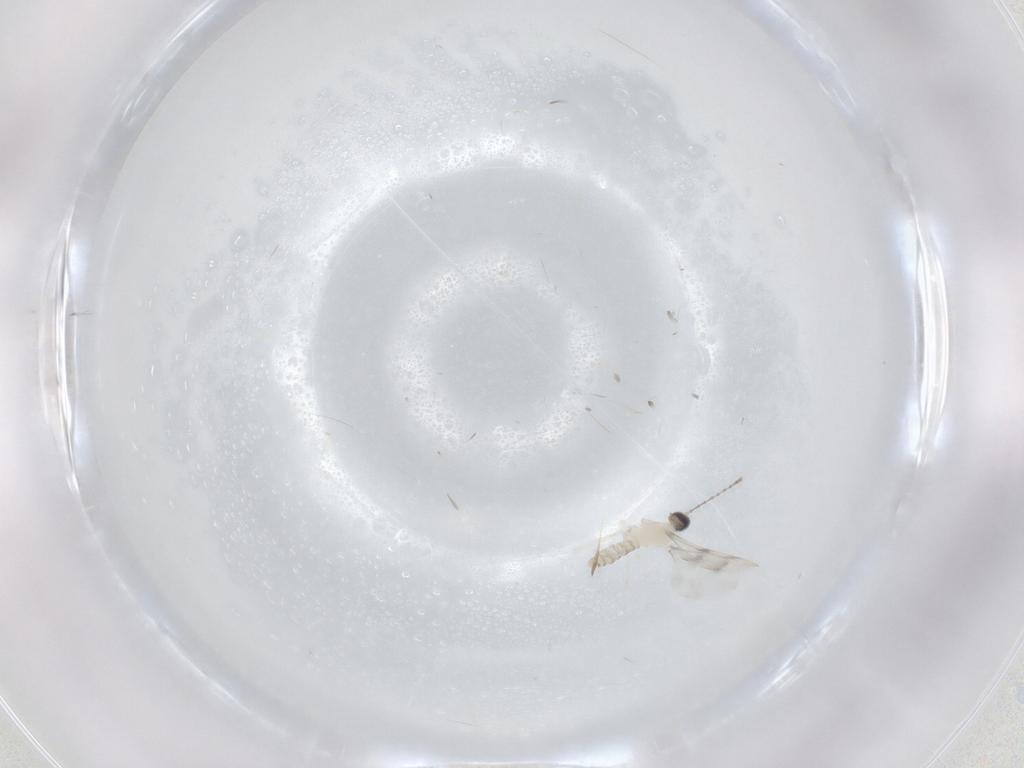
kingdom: Animalia
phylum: Arthropoda
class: Insecta
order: Diptera
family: Cecidomyiidae
